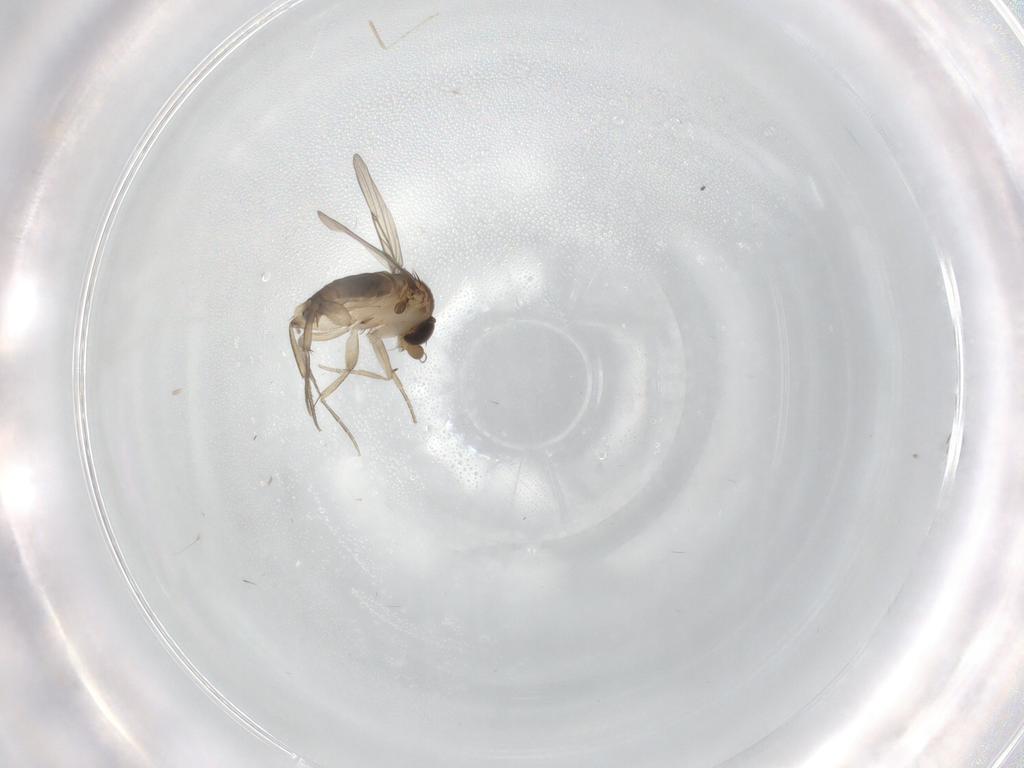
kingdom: Animalia
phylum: Arthropoda
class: Insecta
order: Diptera
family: Phoridae
